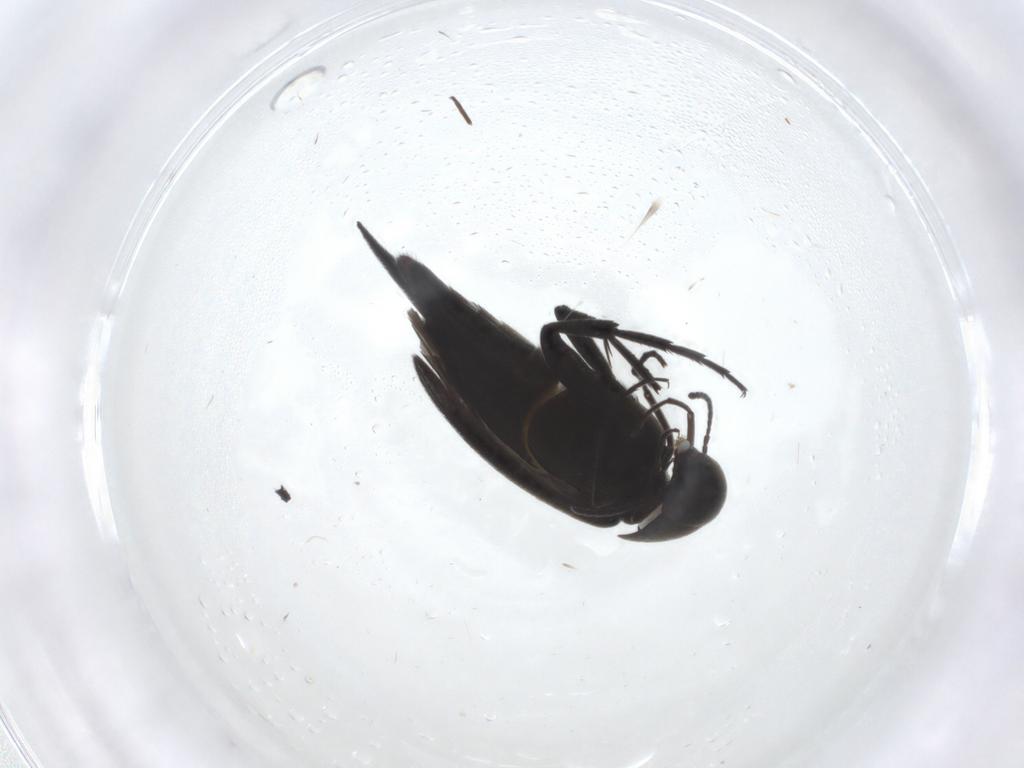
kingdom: Animalia
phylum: Arthropoda
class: Insecta
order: Coleoptera
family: Mordellidae
